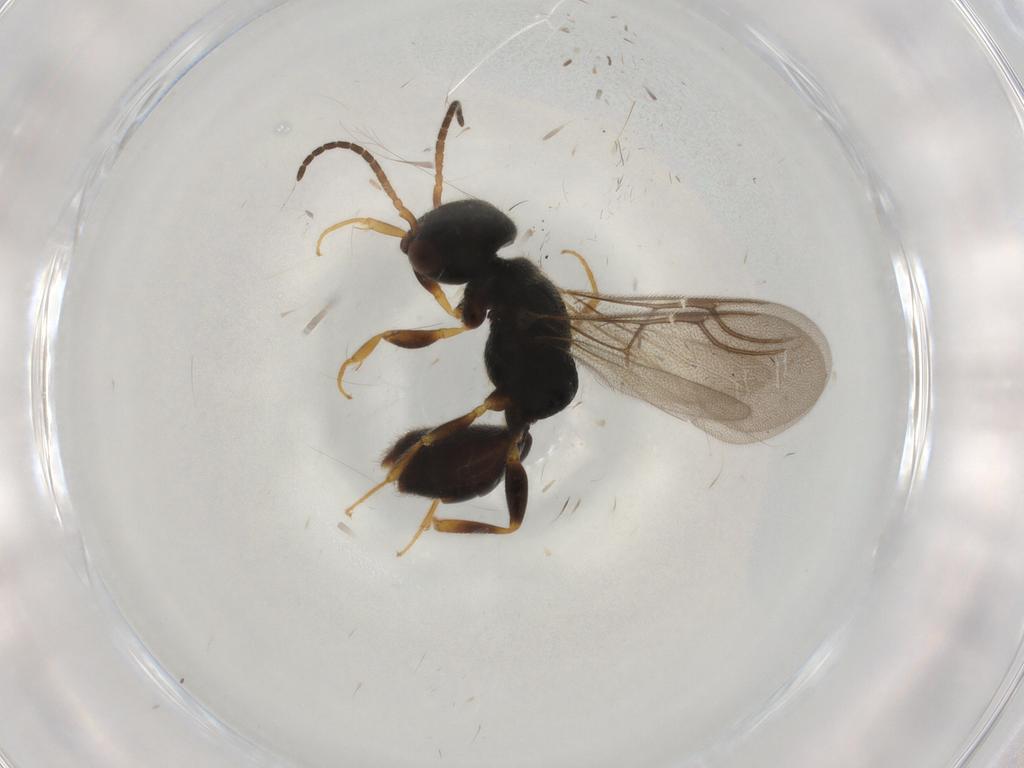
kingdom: Animalia
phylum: Arthropoda
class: Insecta
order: Hymenoptera
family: Bethylidae
